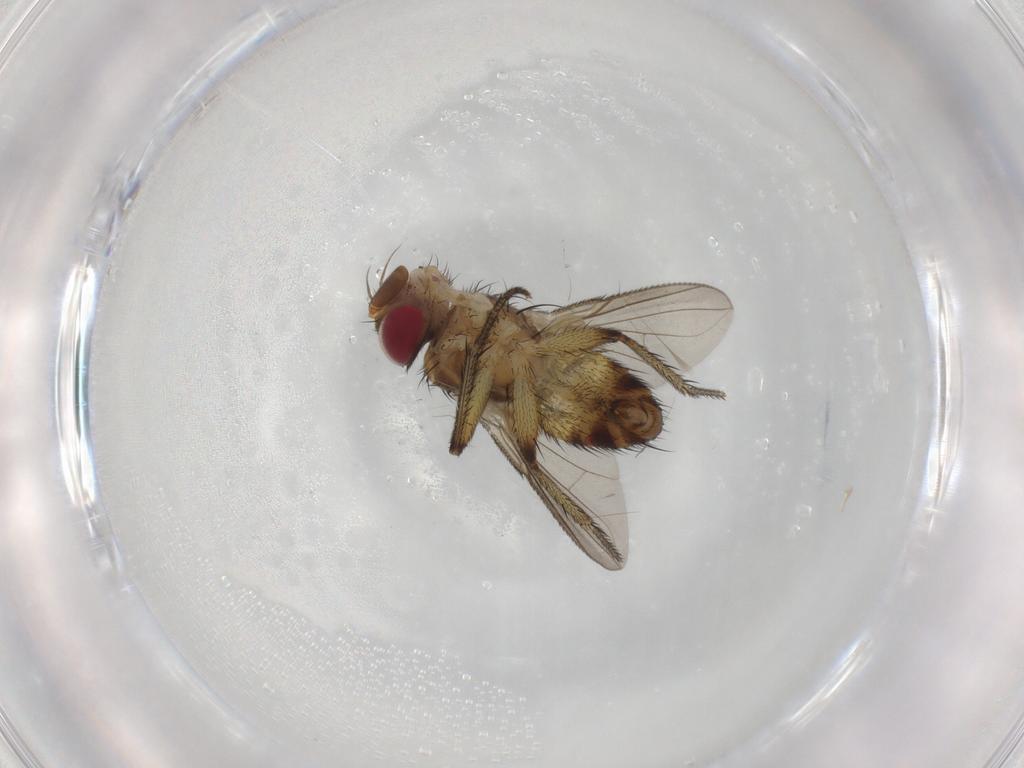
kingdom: Animalia
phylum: Arthropoda
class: Insecta
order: Diptera
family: Tachinidae
